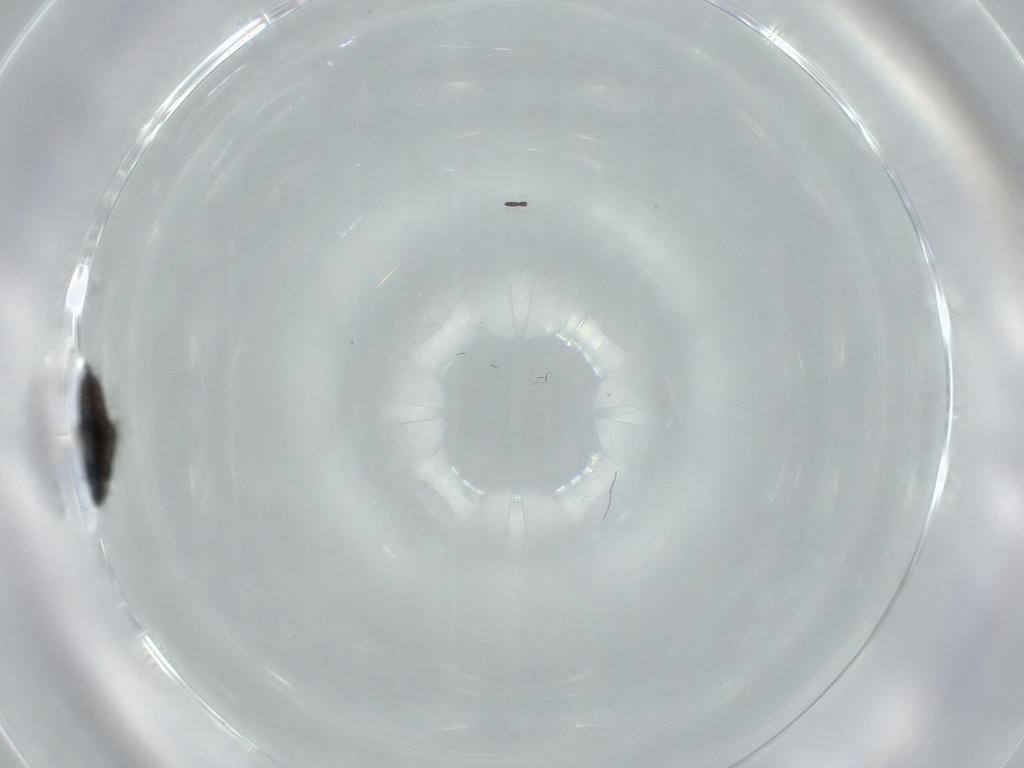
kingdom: Animalia
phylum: Arthropoda
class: Insecta
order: Diptera
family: Phoridae
